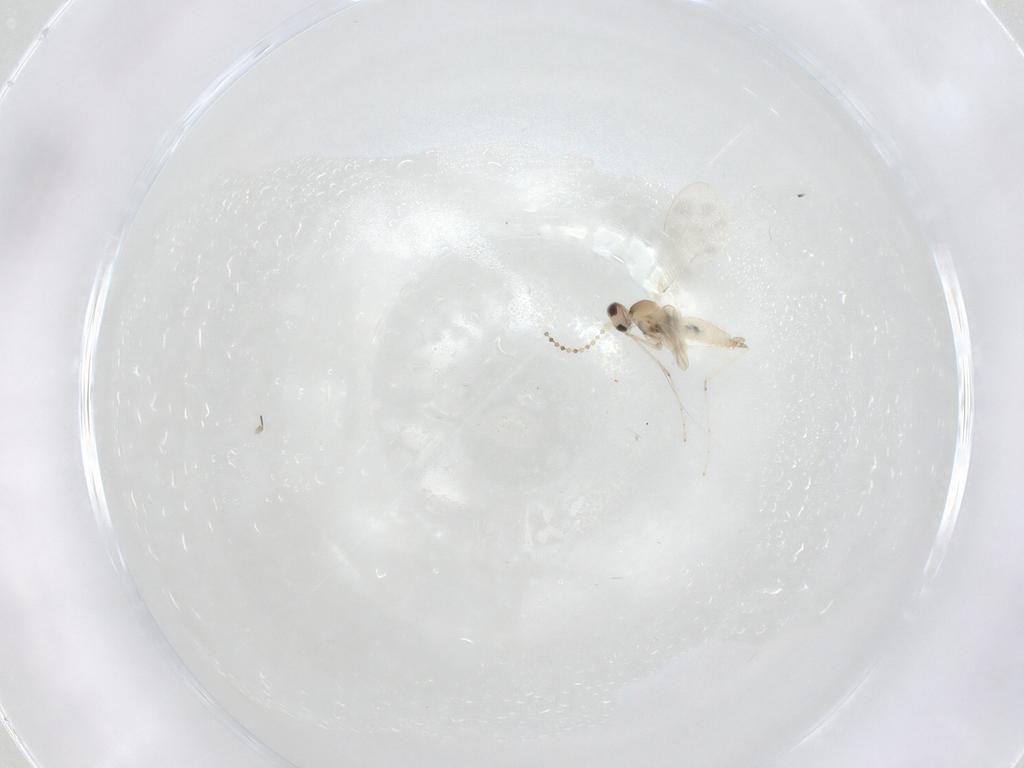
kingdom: Animalia
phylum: Arthropoda
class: Insecta
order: Diptera
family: Cecidomyiidae
